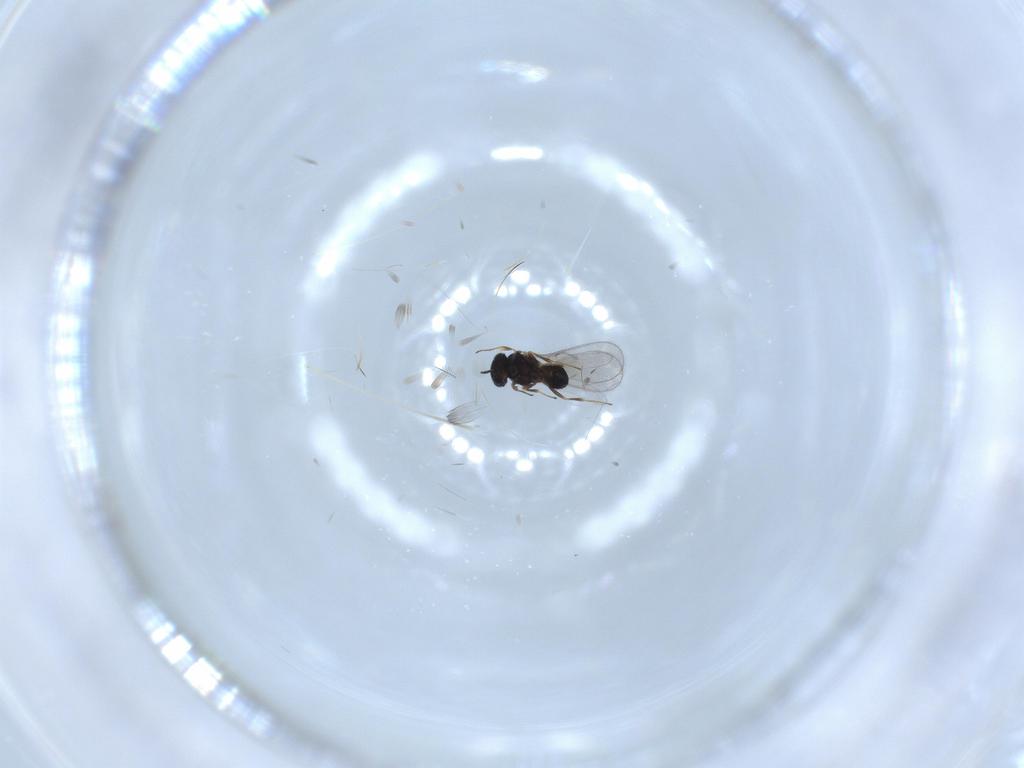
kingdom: Animalia
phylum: Arthropoda
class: Insecta
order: Hymenoptera
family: Scelionidae
